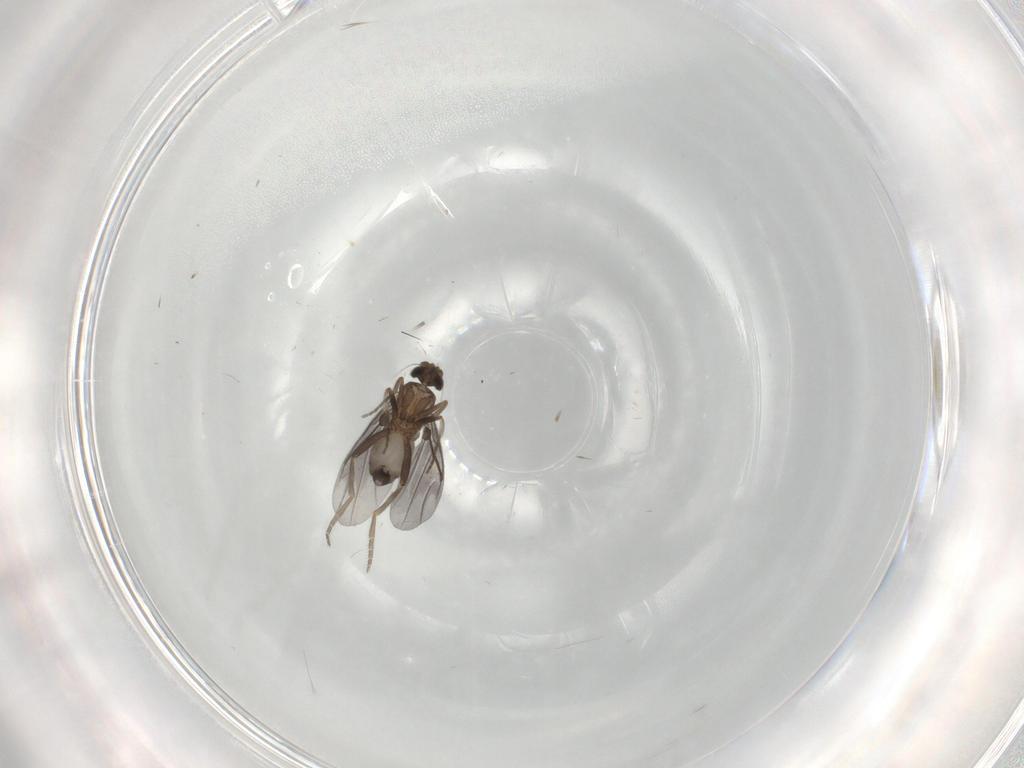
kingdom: Animalia
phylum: Arthropoda
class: Insecta
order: Diptera
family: Phoridae
